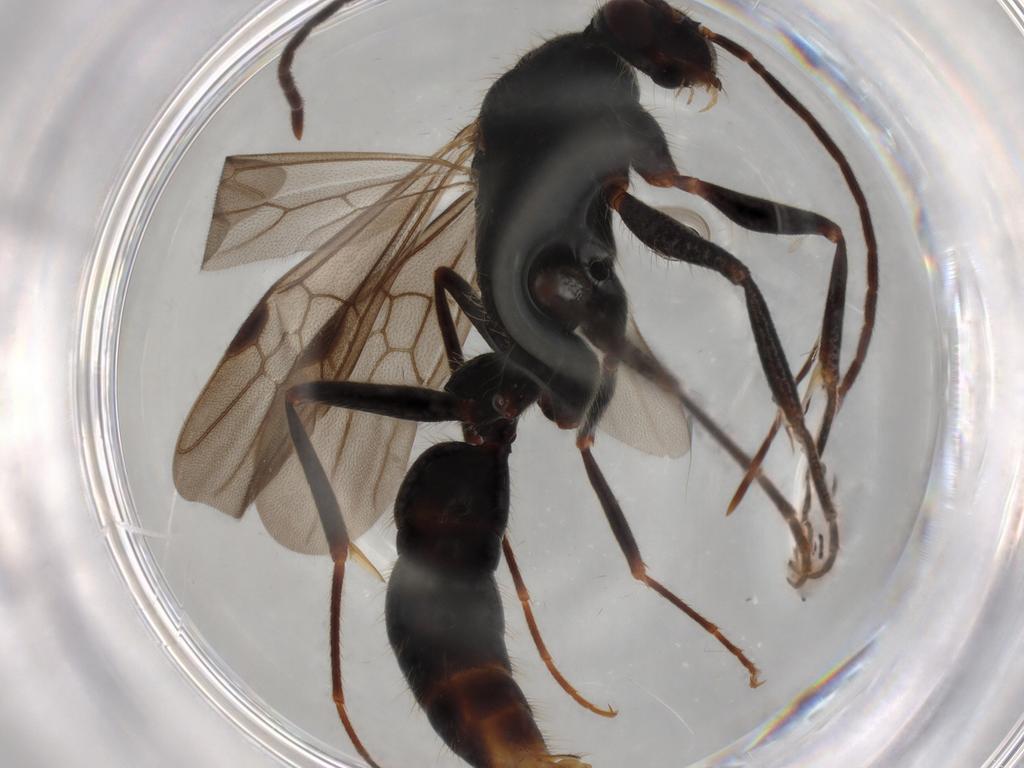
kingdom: Animalia
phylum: Arthropoda
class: Insecta
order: Hymenoptera
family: Formicidae
